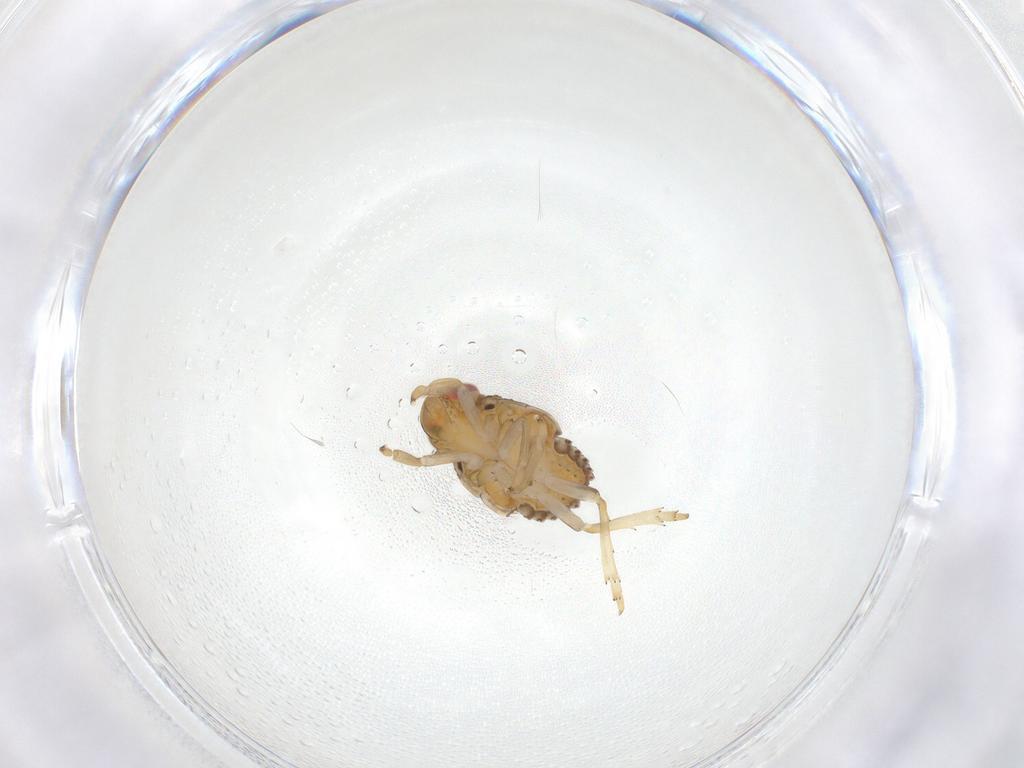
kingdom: Animalia
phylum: Arthropoda
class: Insecta
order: Hemiptera
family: Issidae
